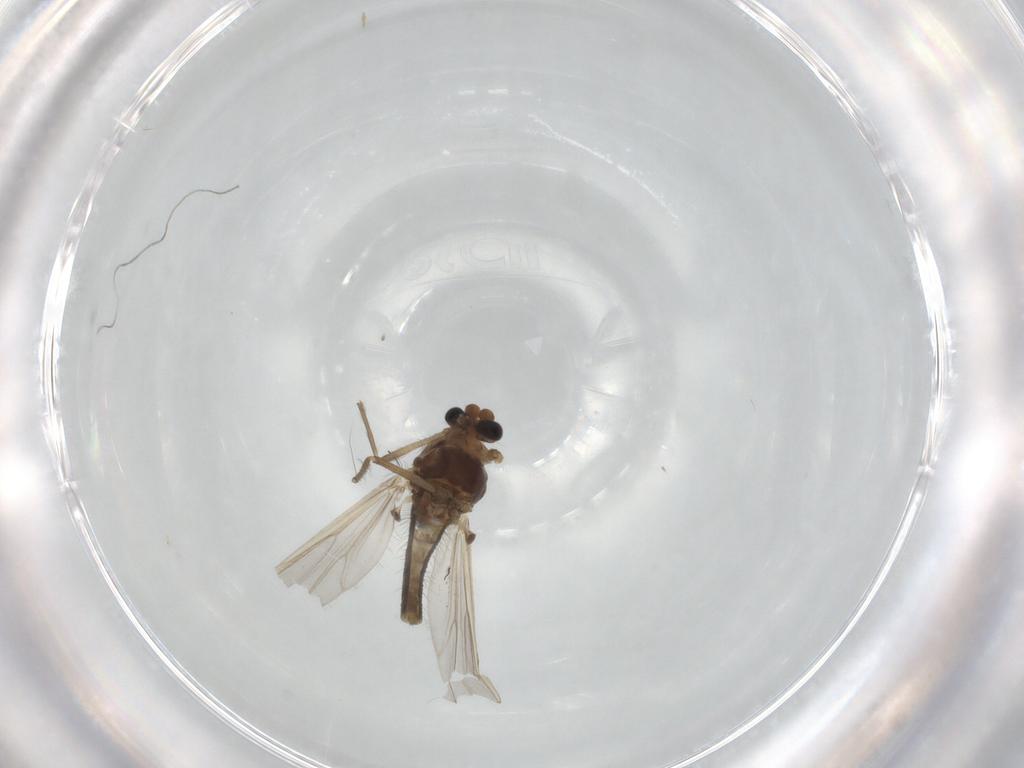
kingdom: Animalia
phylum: Arthropoda
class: Insecta
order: Diptera
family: Chironomidae
